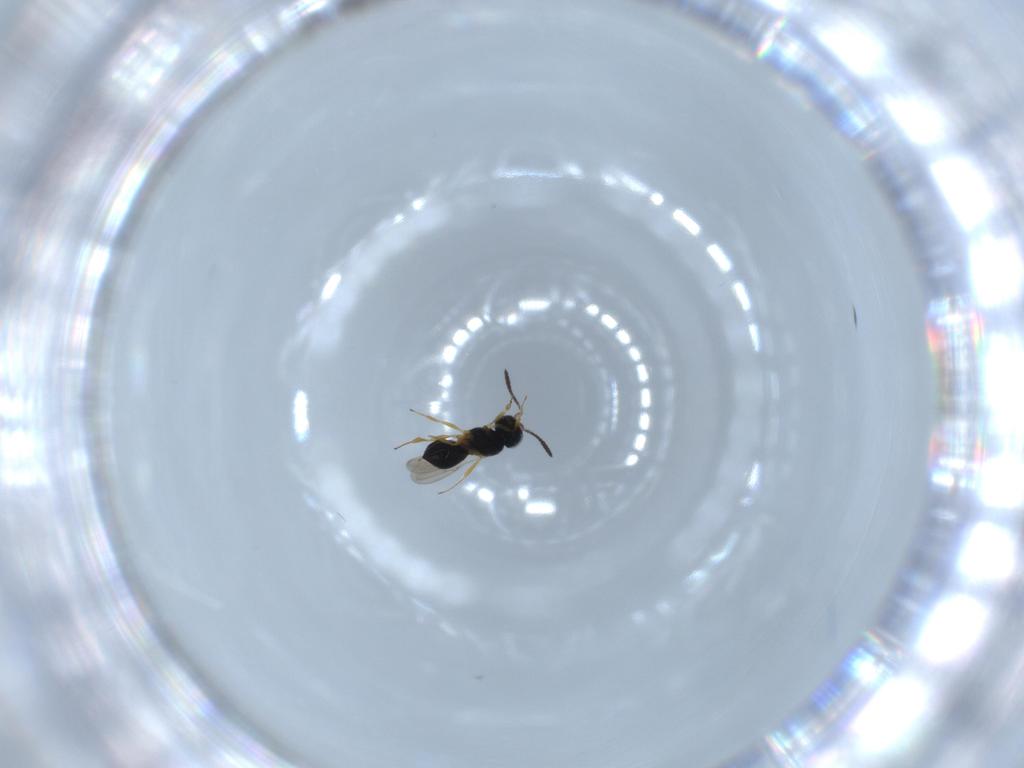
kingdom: Animalia
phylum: Arthropoda
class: Insecta
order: Hymenoptera
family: Scelionidae
